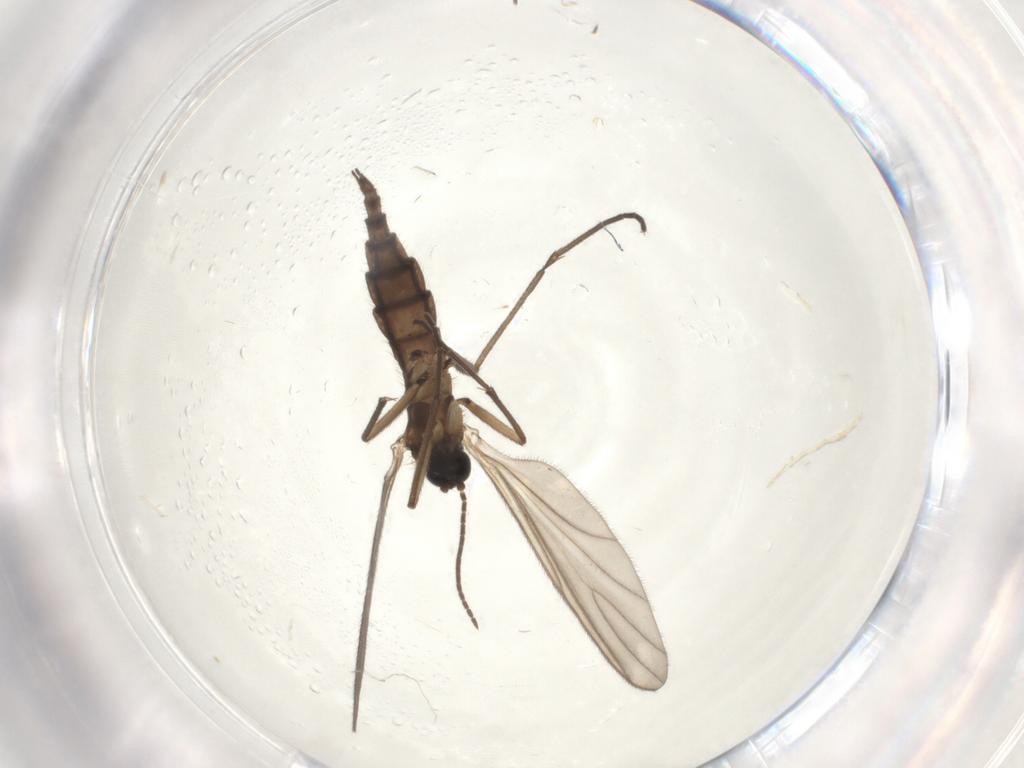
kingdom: Animalia
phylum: Arthropoda
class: Insecta
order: Diptera
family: Sciaridae
